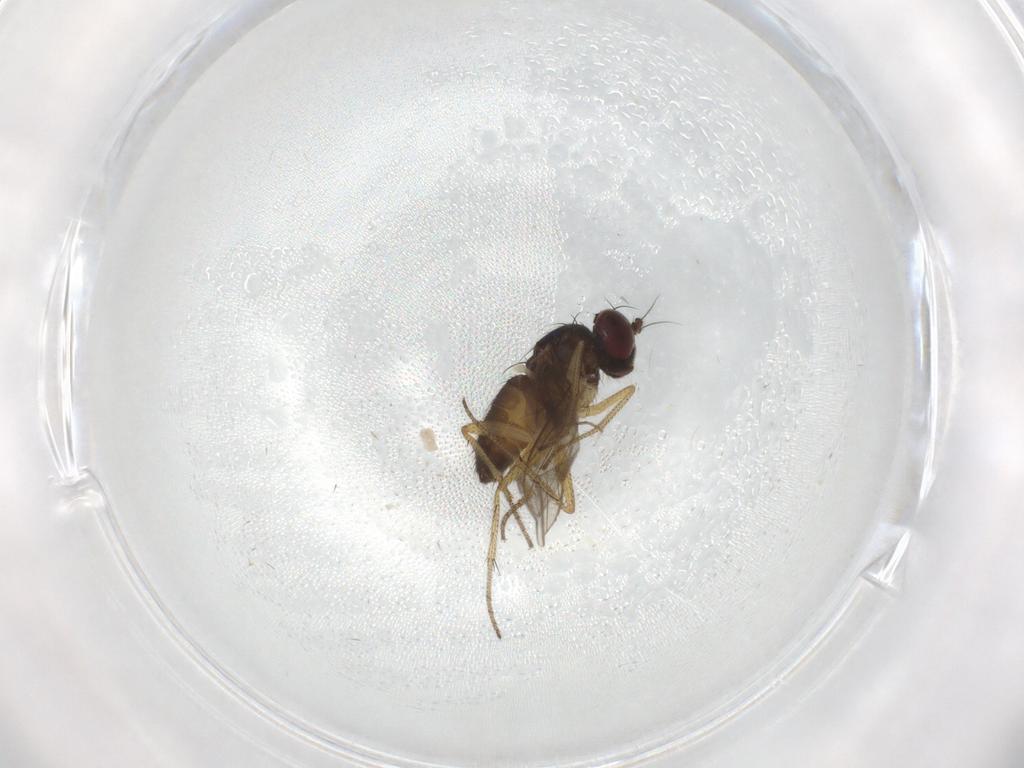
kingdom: Animalia
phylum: Arthropoda
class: Insecta
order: Diptera
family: Dolichopodidae
